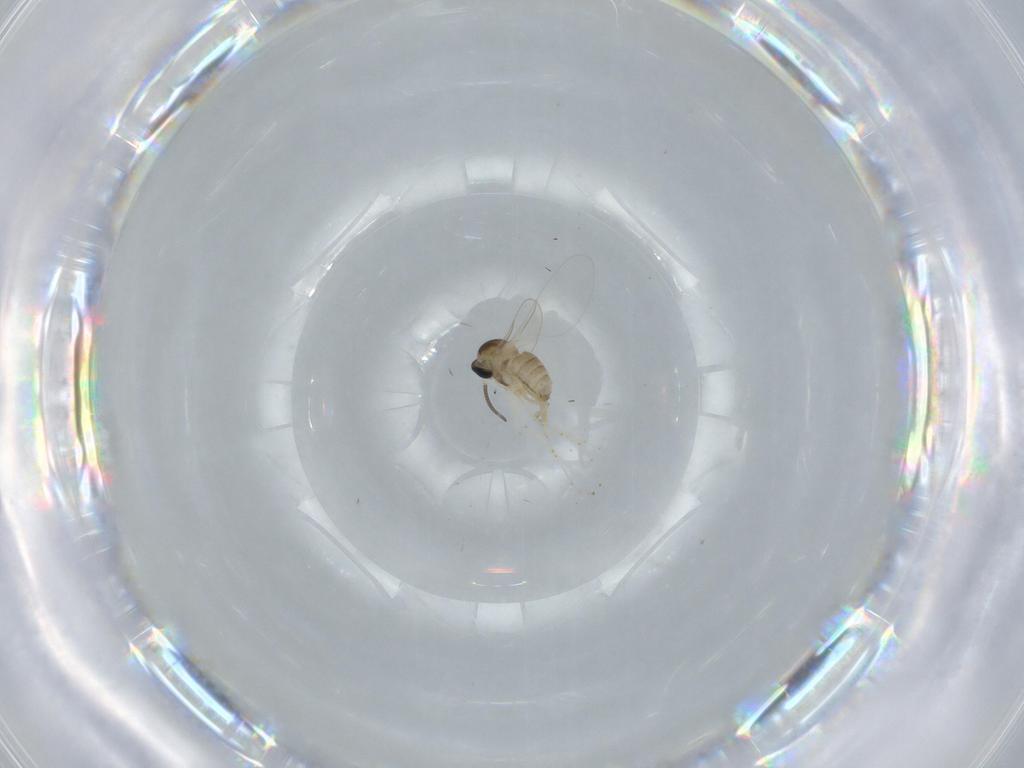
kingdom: Animalia
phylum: Arthropoda
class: Insecta
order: Diptera
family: Cecidomyiidae
